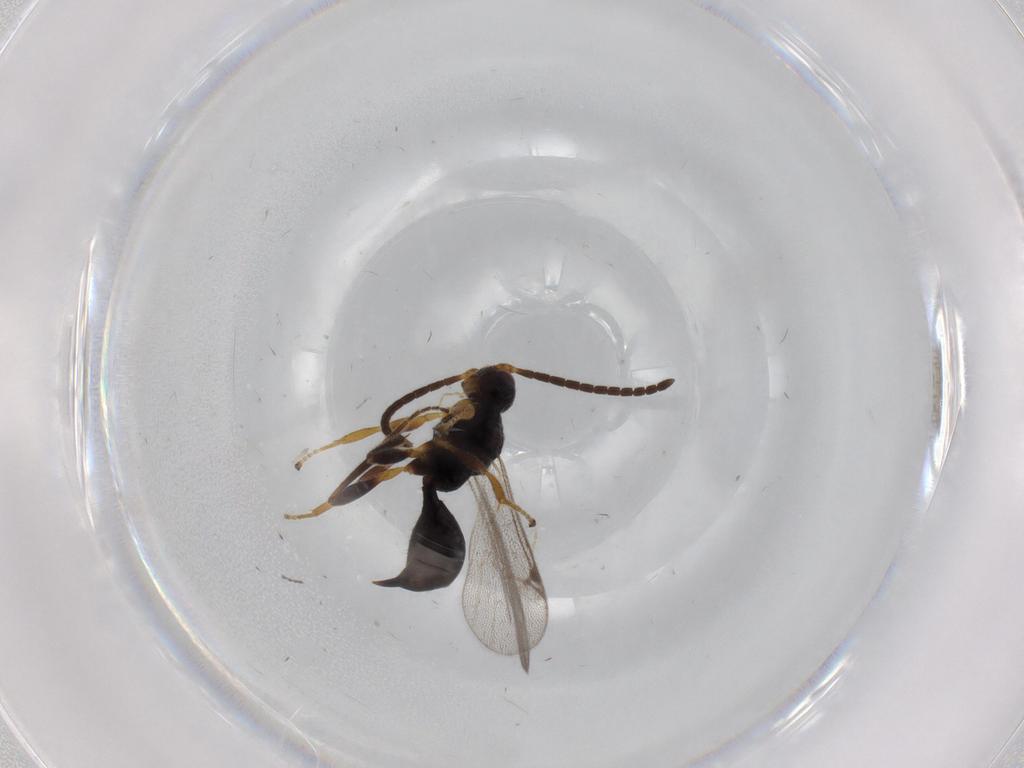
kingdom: Animalia
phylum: Arthropoda
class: Insecta
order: Hymenoptera
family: Proctotrupidae
